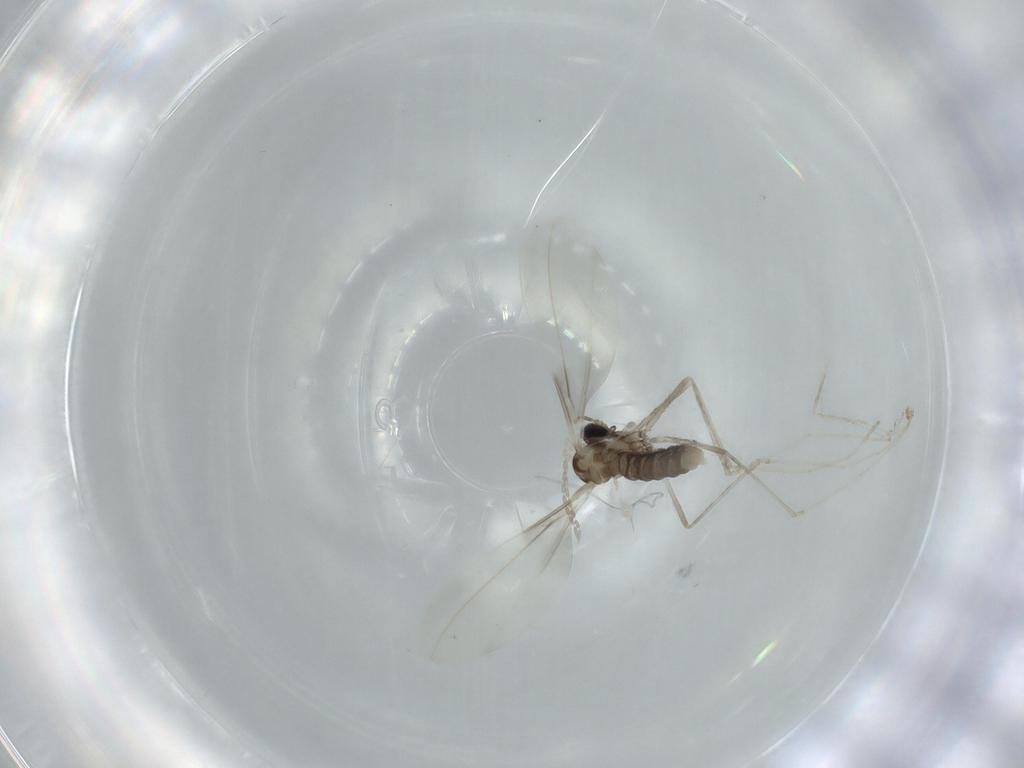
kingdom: Animalia
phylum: Arthropoda
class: Insecta
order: Diptera
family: Cecidomyiidae
